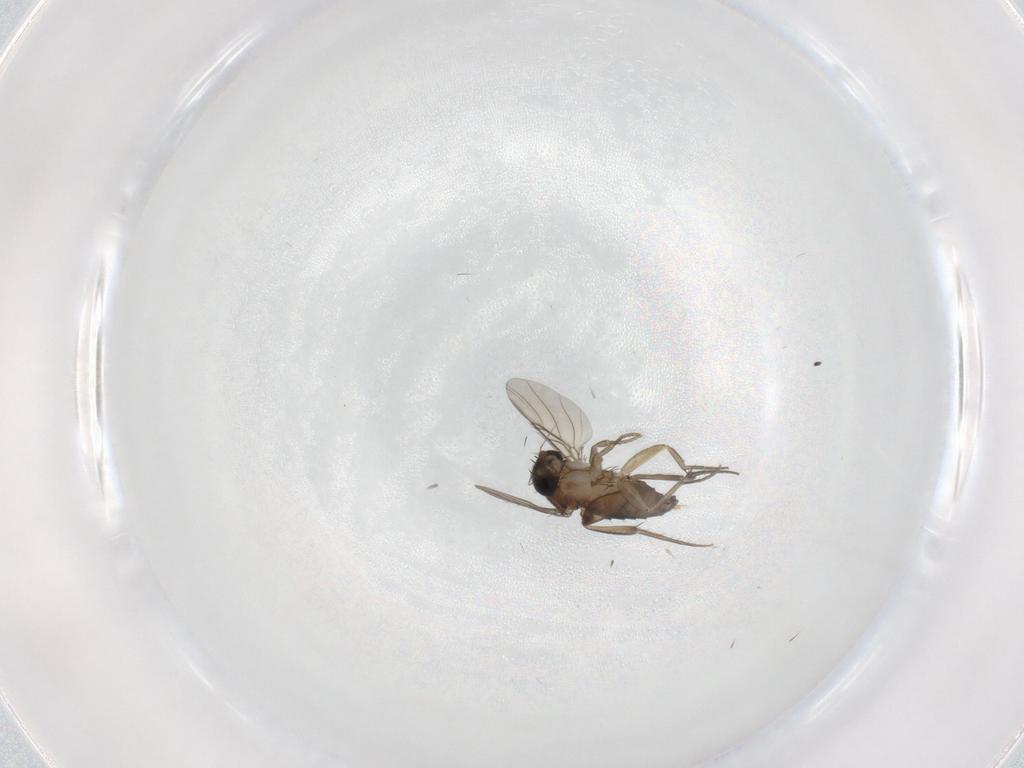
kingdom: Animalia
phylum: Arthropoda
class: Insecta
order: Diptera
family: Phoridae
